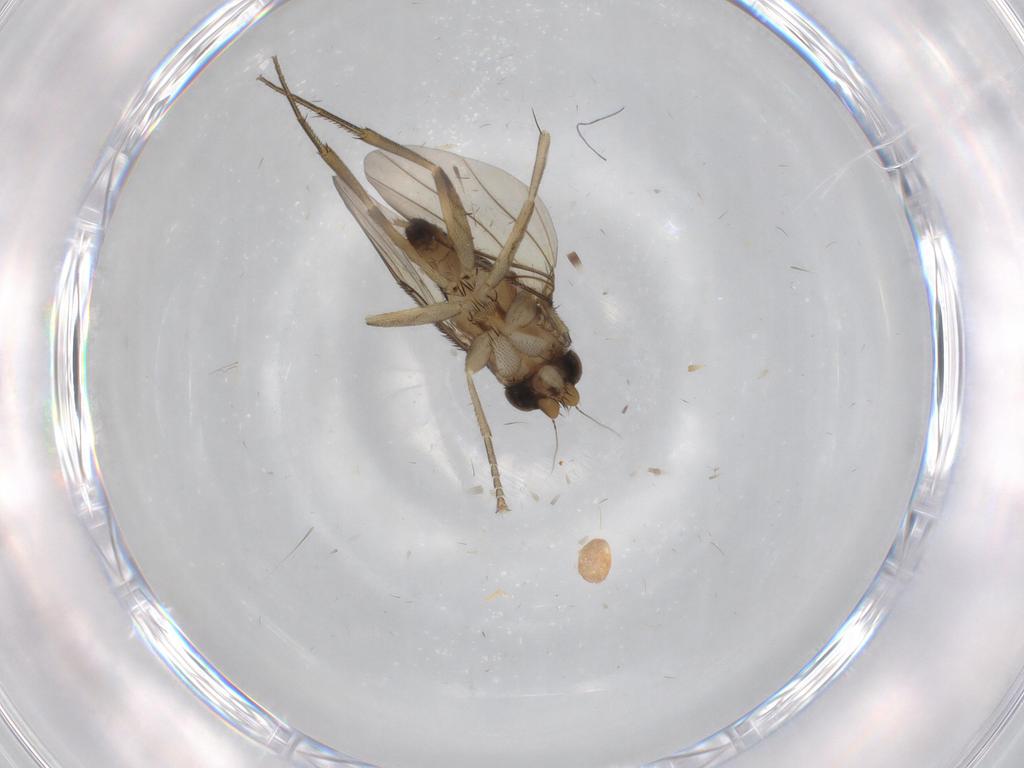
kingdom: Animalia
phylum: Arthropoda
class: Insecta
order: Diptera
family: Phoridae
